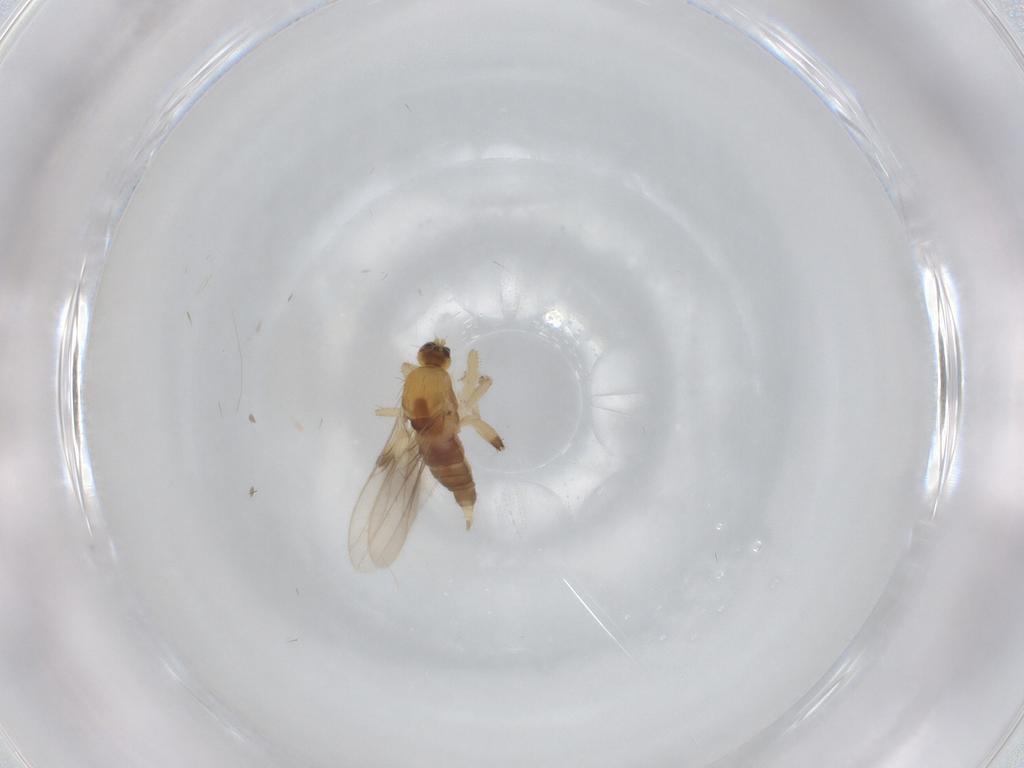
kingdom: Animalia
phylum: Arthropoda
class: Insecta
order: Diptera
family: Hybotidae
